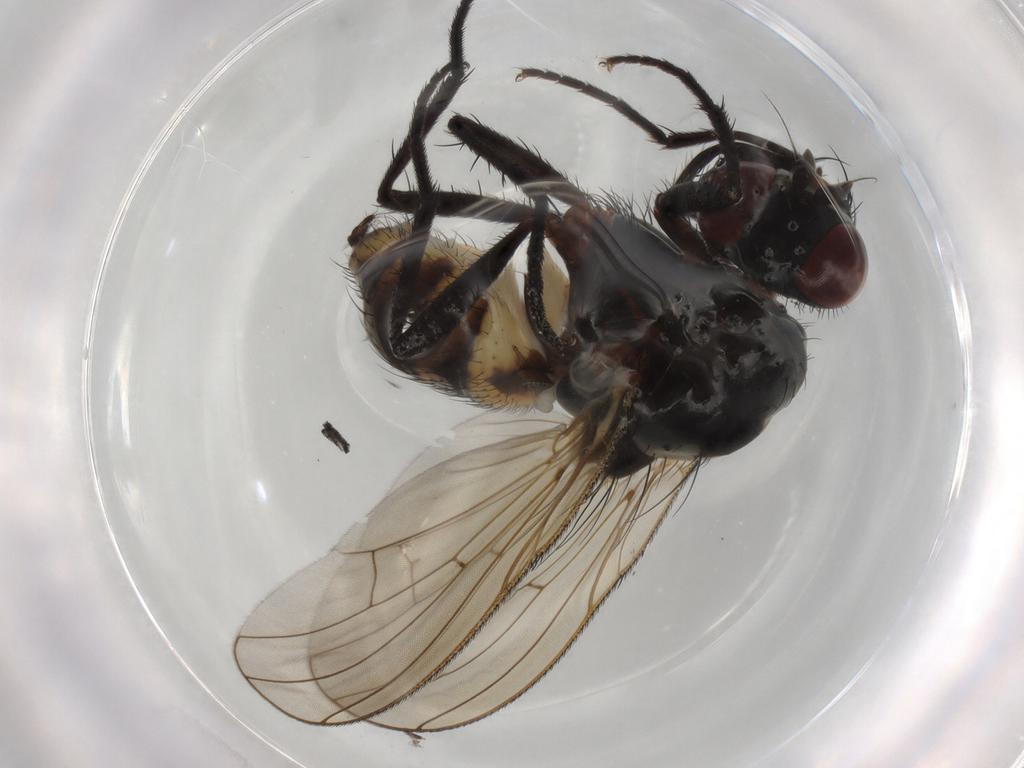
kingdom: Animalia
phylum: Arthropoda
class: Insecta
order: Diptera
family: Anthomyiidae
